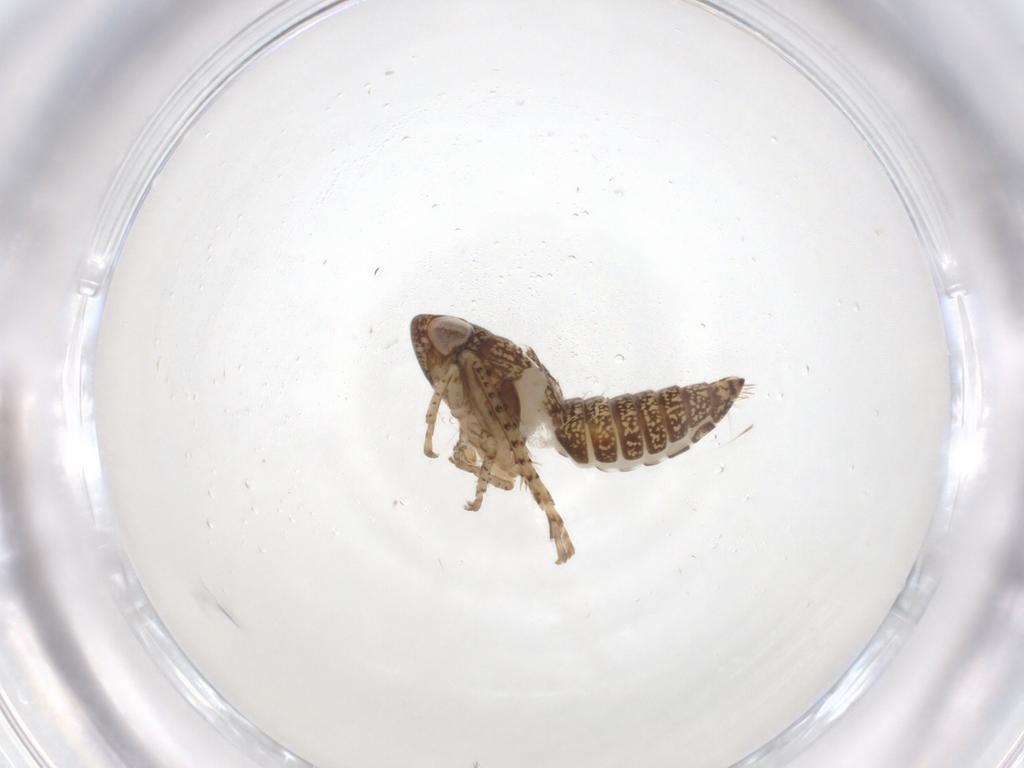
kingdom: Animalia
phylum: Arthropoda
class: Insecta
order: Hemiptera
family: Cicadellidae
